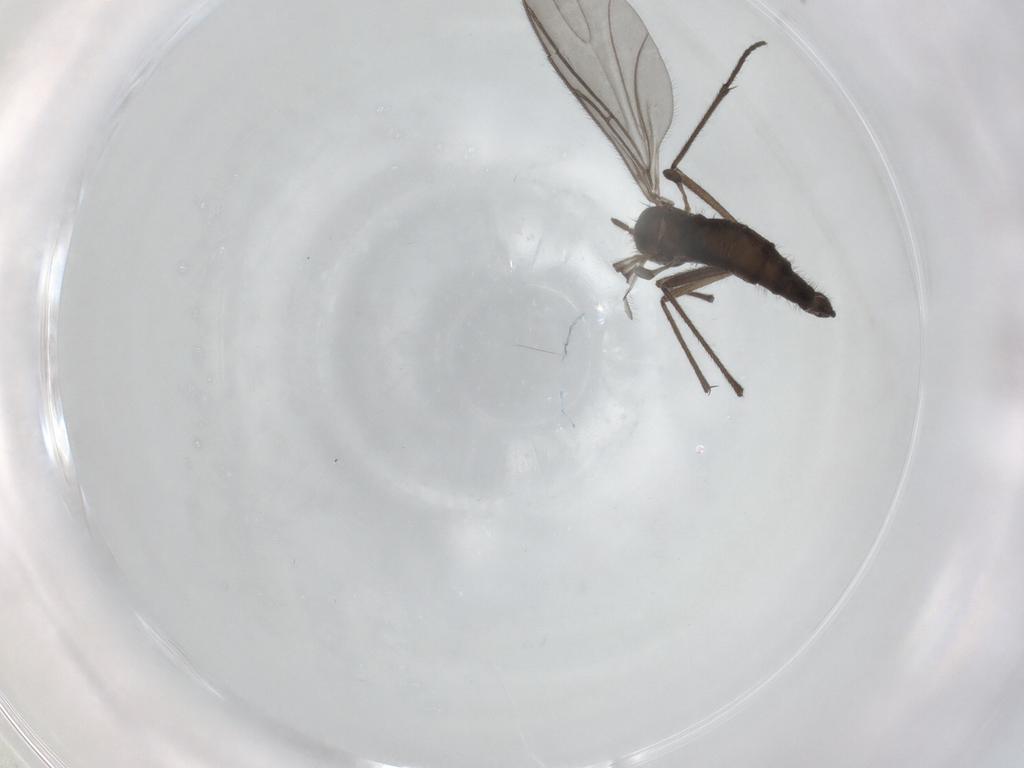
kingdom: Animalia
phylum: Arthropoda
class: Insecta
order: Diptera
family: Sciaridae
